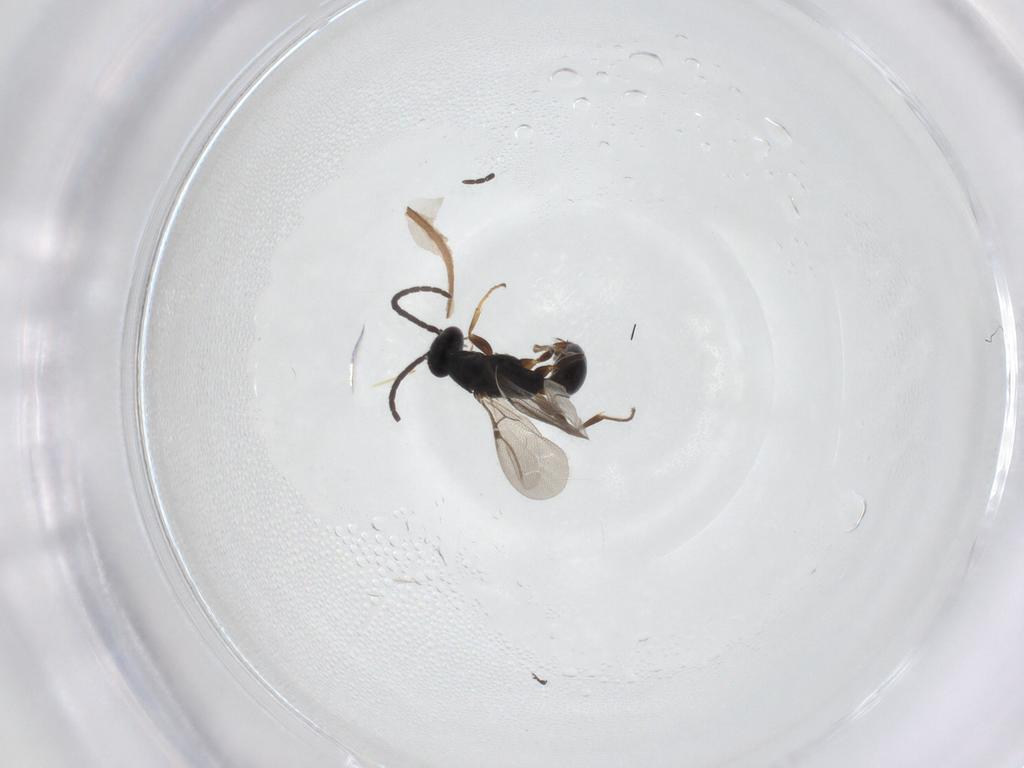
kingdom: Animalia
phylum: Arthropoda
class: Insecta
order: Hymenoptera
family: Bethylidae
